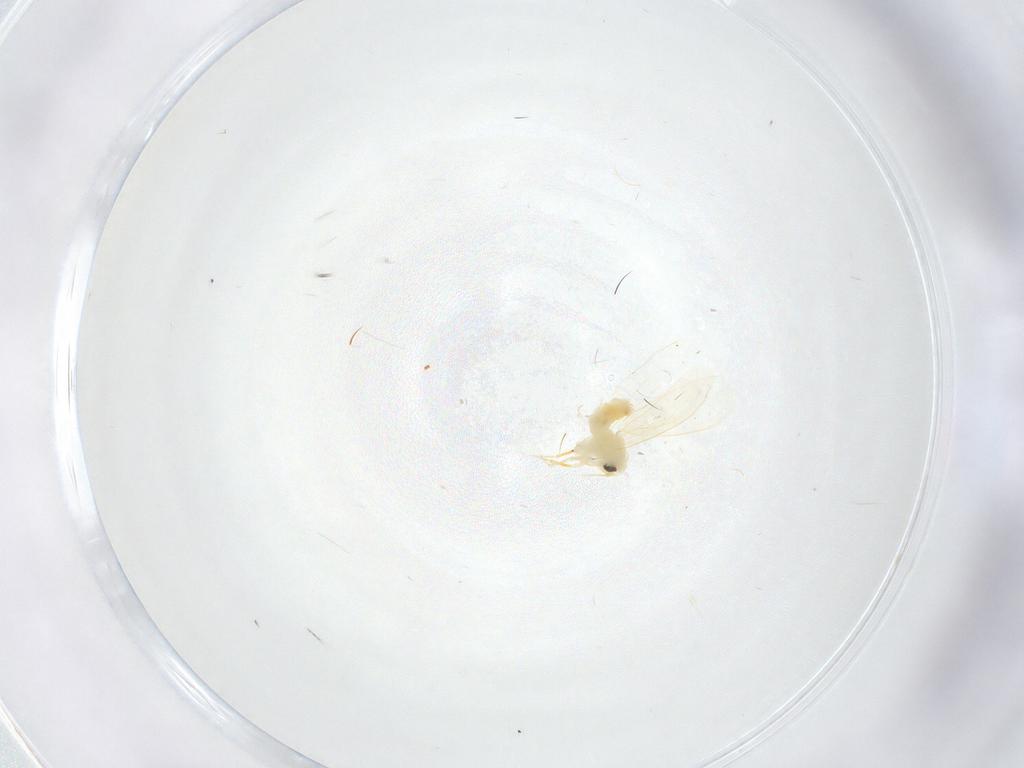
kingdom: Animalia
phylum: Arthropoda
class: Insecta
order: Hemiptera
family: Aleyrodidae
